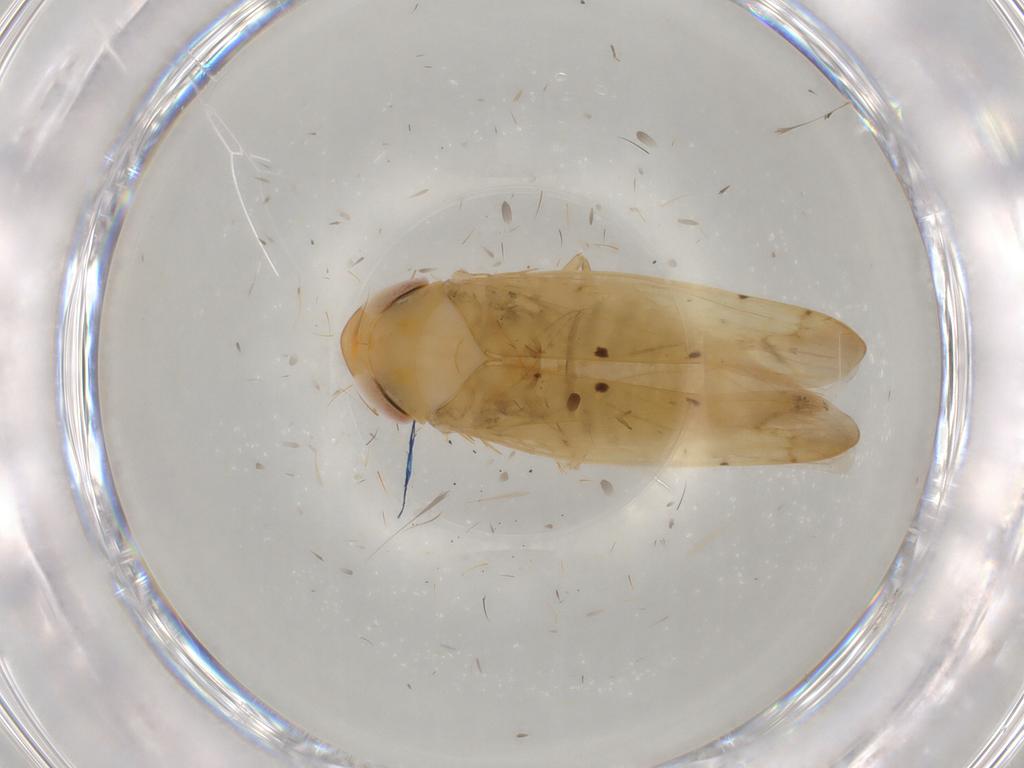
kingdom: Animalia
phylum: Arthropoda
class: Insecta
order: Hemiptera
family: Cicadellidae
